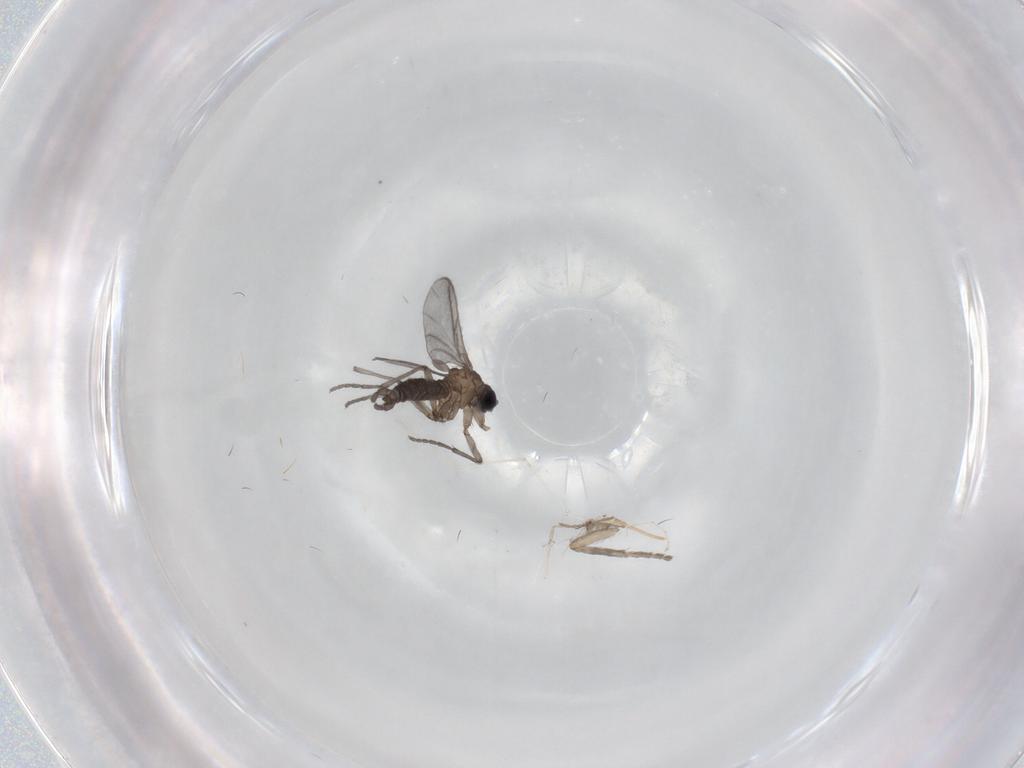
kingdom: Animalia
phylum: Arthropoda
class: Insecta
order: Diptera
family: Sciaridae
